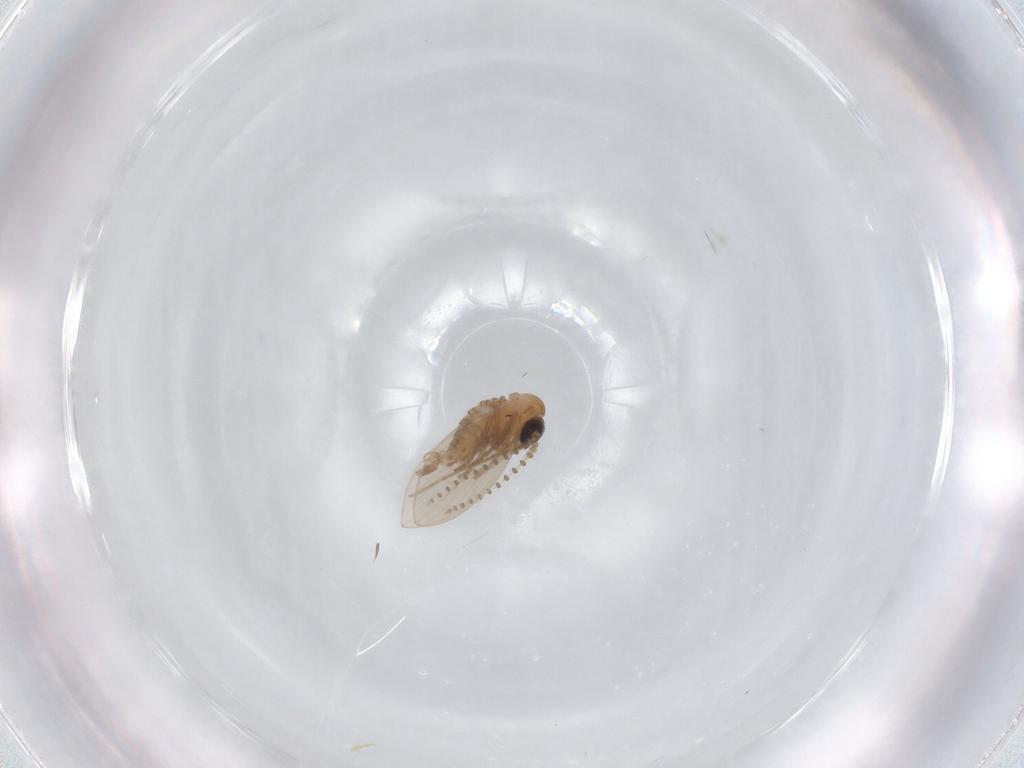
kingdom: Animalia
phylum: Arthropoda
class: Insecta
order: Diptera
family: Psychodidae
